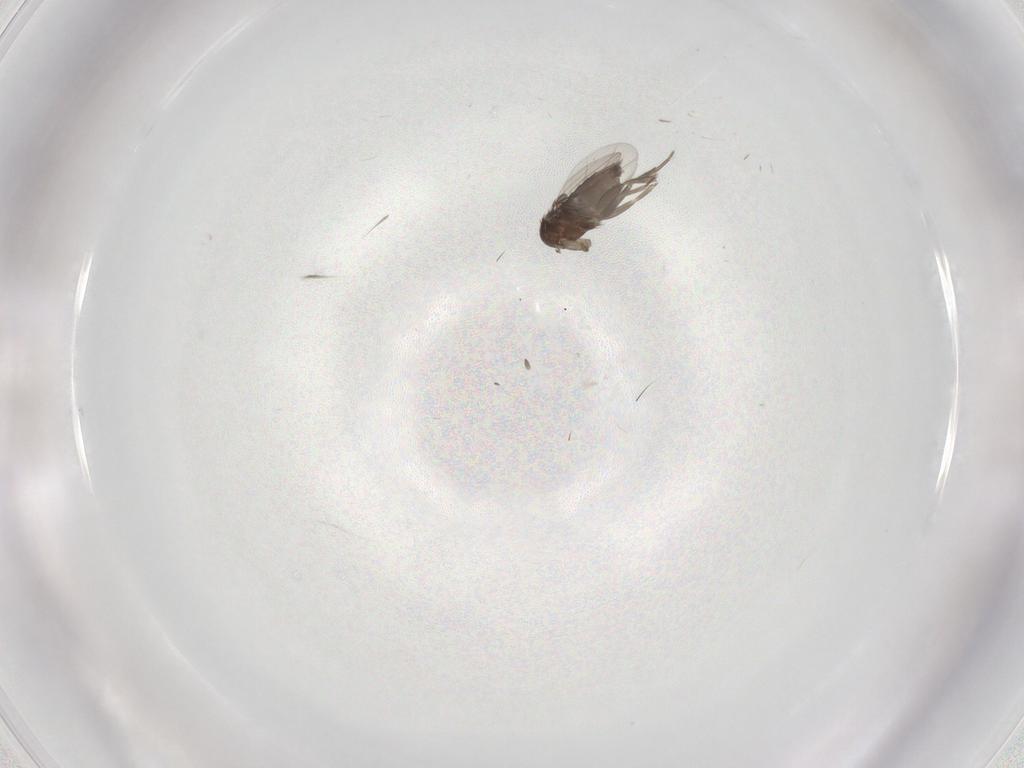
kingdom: Animalia
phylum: Arthropoda
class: Insecta
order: Diptera
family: Phoridae
